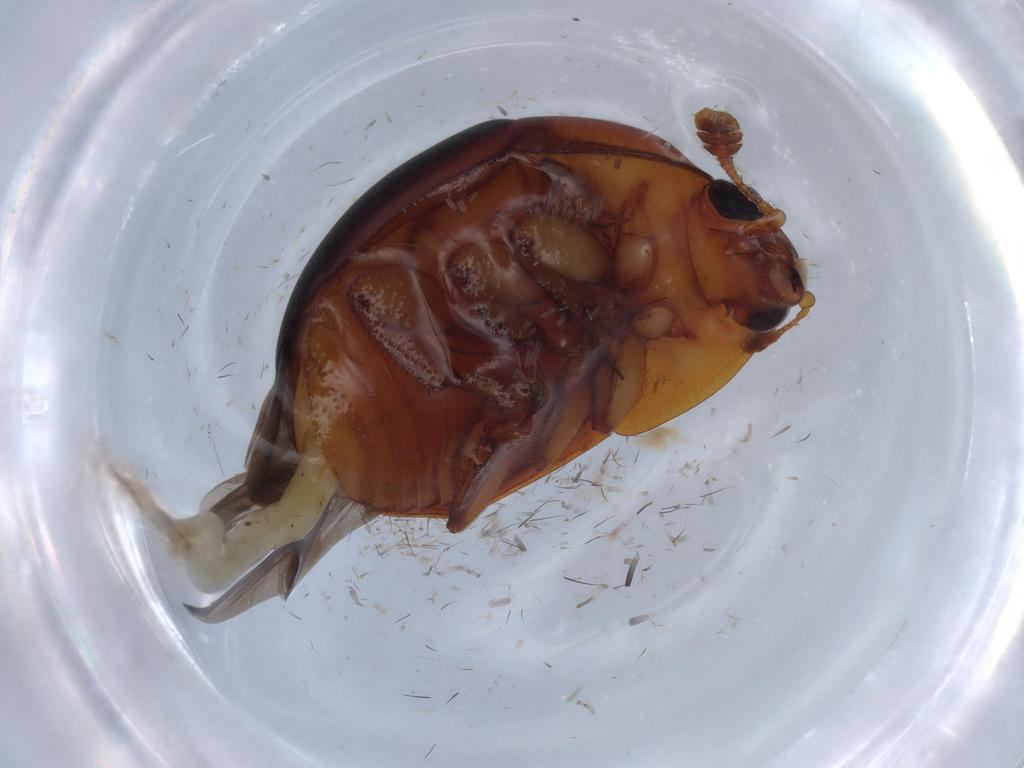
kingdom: Animalia
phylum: Arthropoda
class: Insecta
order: Coleoptera
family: Nitidulidae
